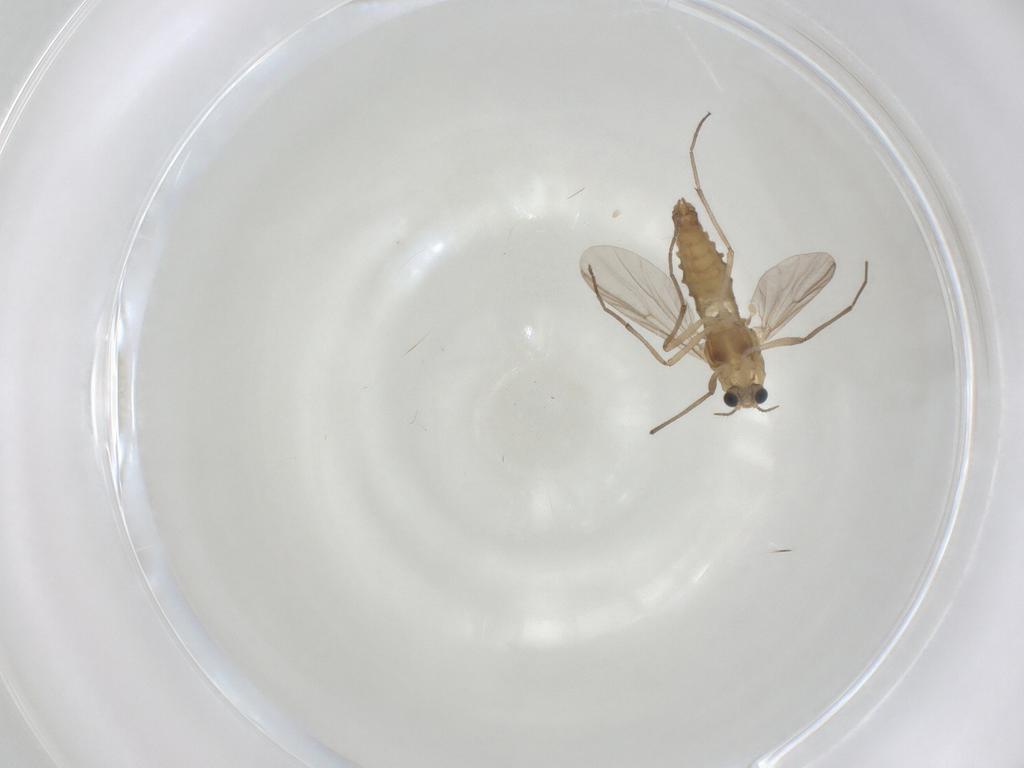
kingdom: Animalia
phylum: Arthropoda
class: Insecta
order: Diptera
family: Chironomidae
